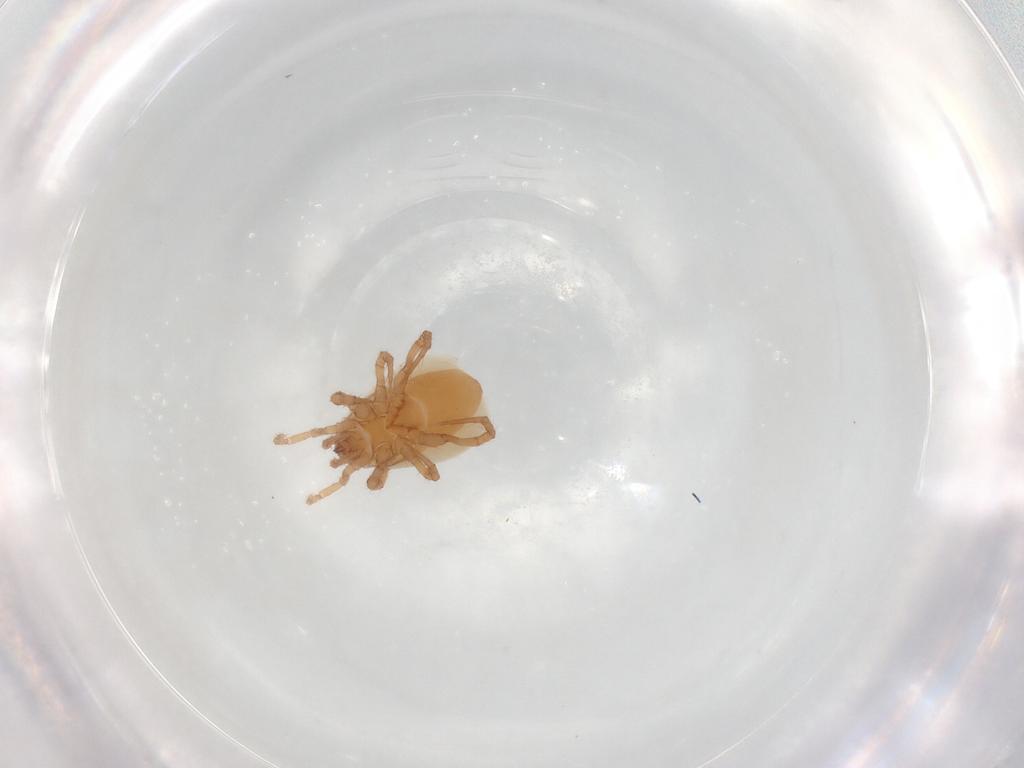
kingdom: Animalia
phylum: Arthropoda
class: Arachnida
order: Mesostigmata
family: Parasitidae
